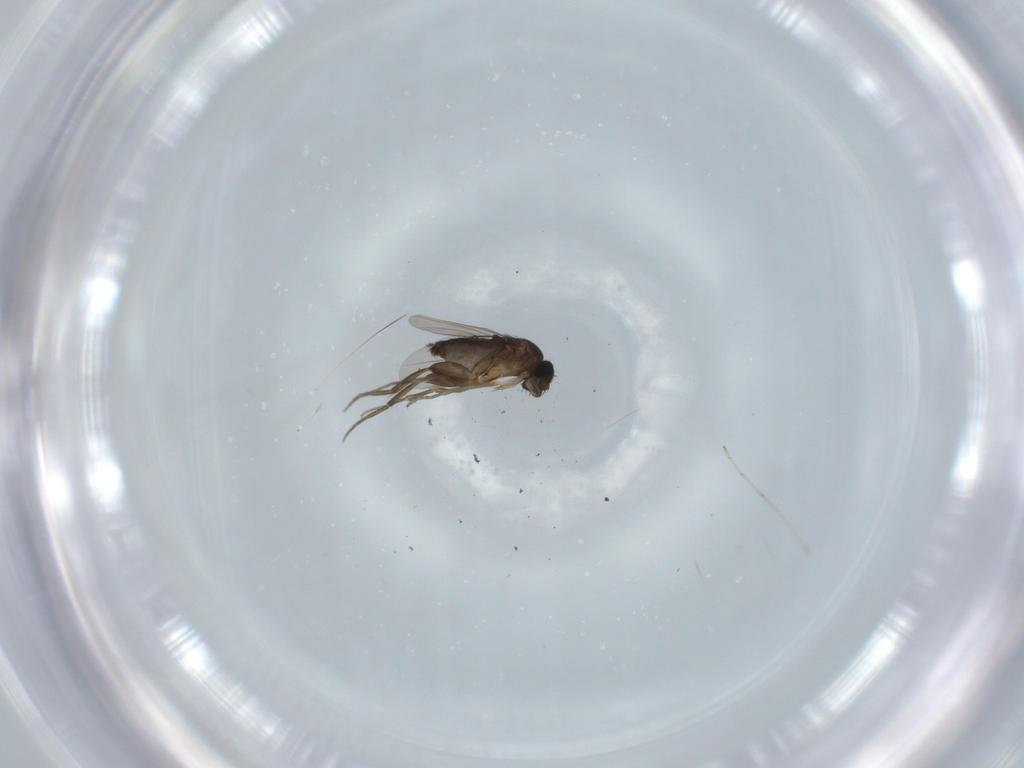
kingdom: Animalia
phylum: Arthropoda
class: Insecta
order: Diptera
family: Phoridae
